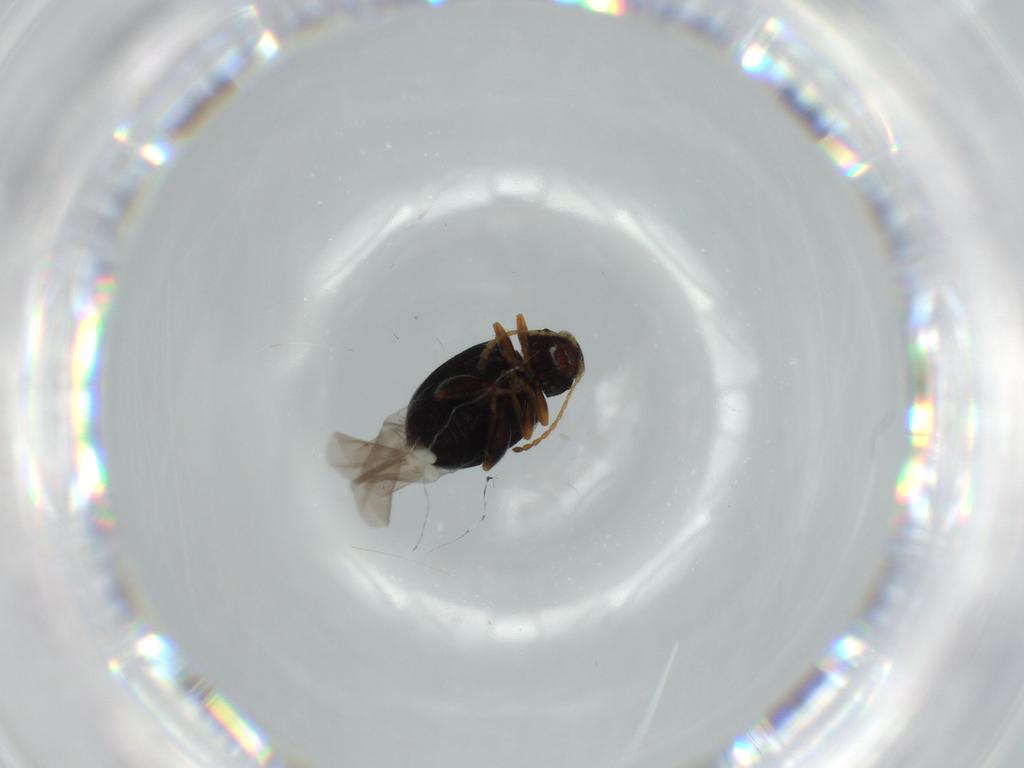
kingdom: Animalia
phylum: Arthropoda
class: Insecta
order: Coleoptera
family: Chrysomelidae
